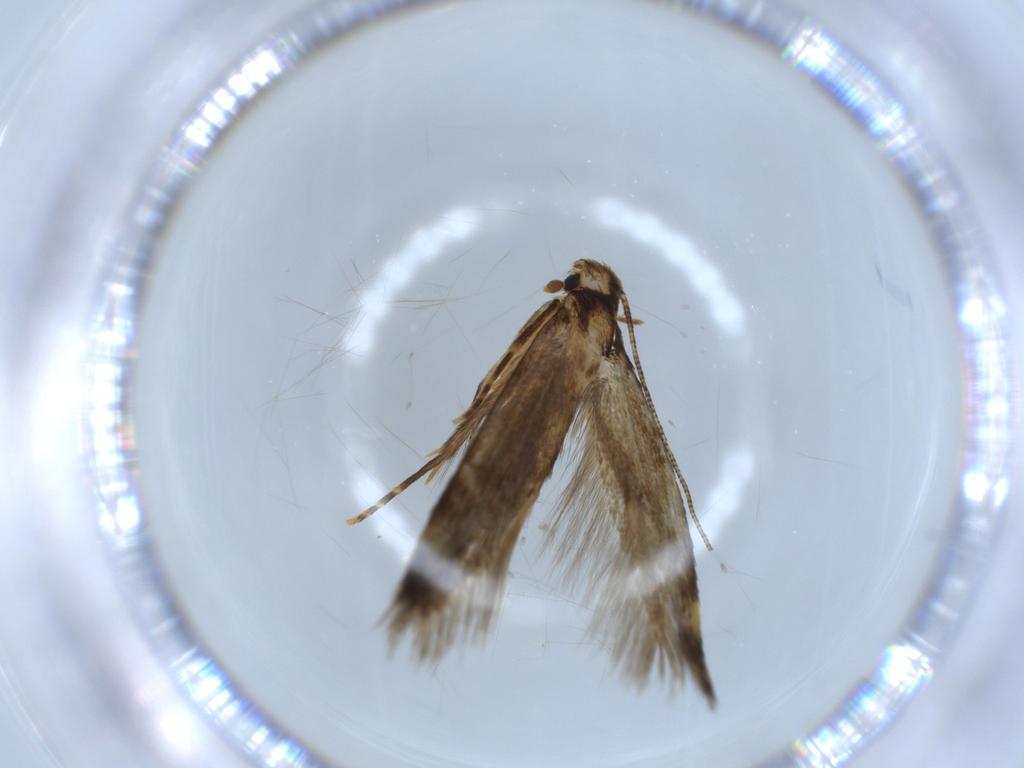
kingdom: Animalia
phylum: Arthropoda
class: Insecta
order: Lepidoptera
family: Tineidae
